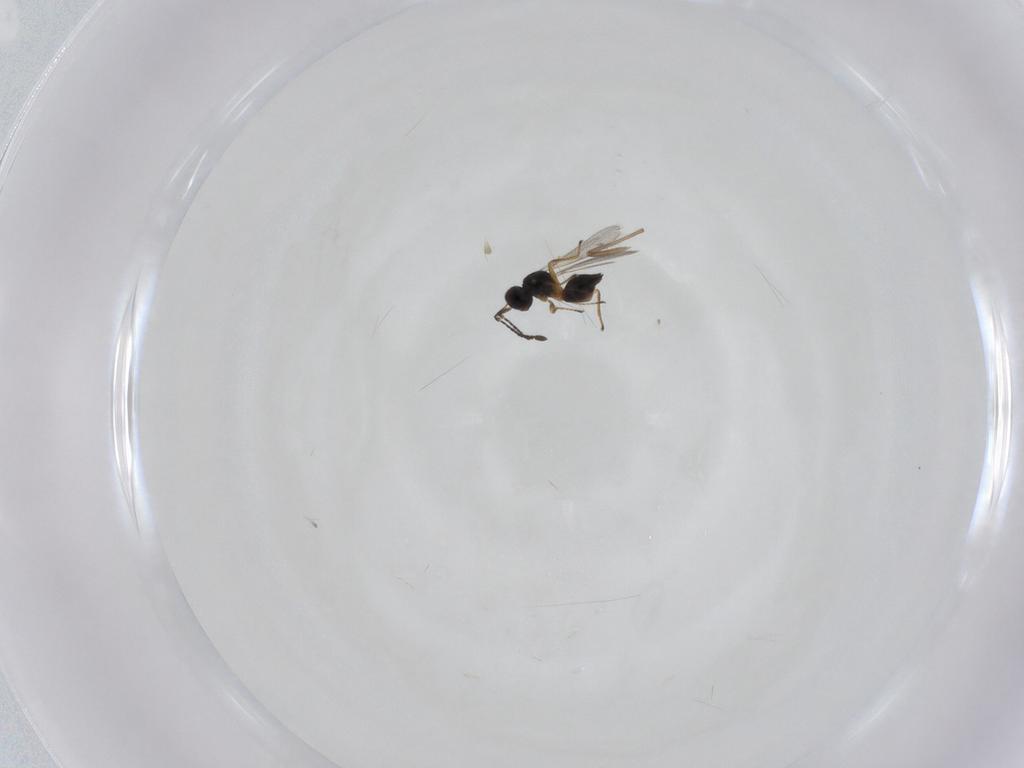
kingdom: Animalia
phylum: Arthropoda
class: Insecta
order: Hymenoptera
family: Mymaridae
